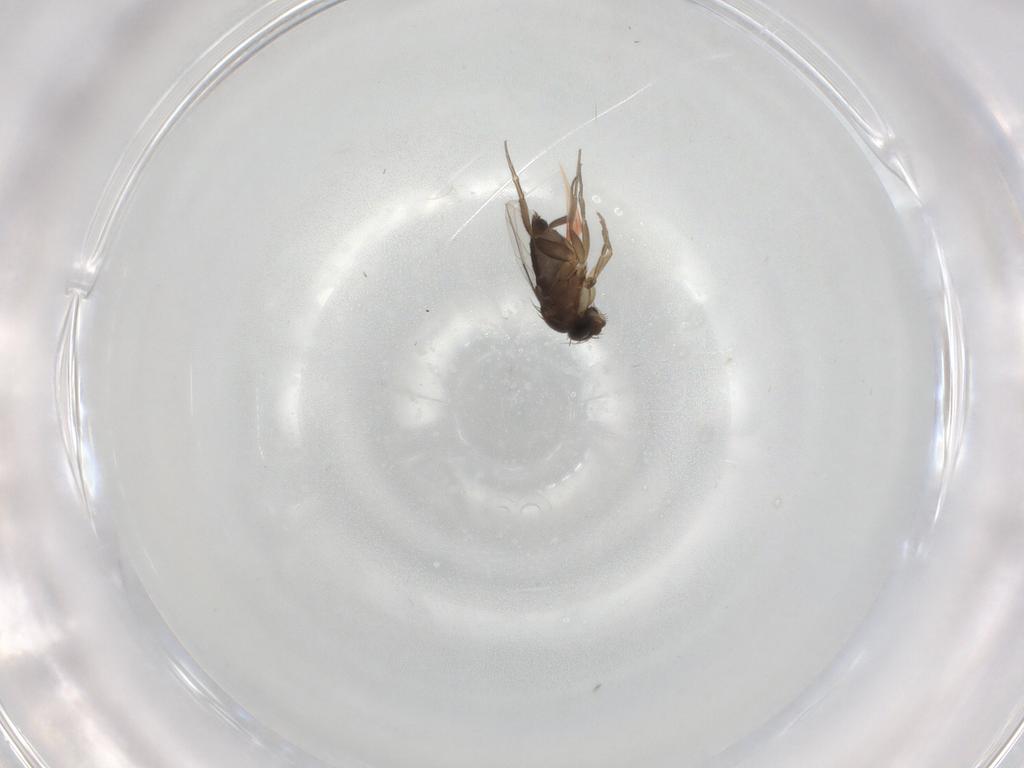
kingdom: Animalia
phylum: Arthropoda
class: Insecta
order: Diptera
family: Phoridae
